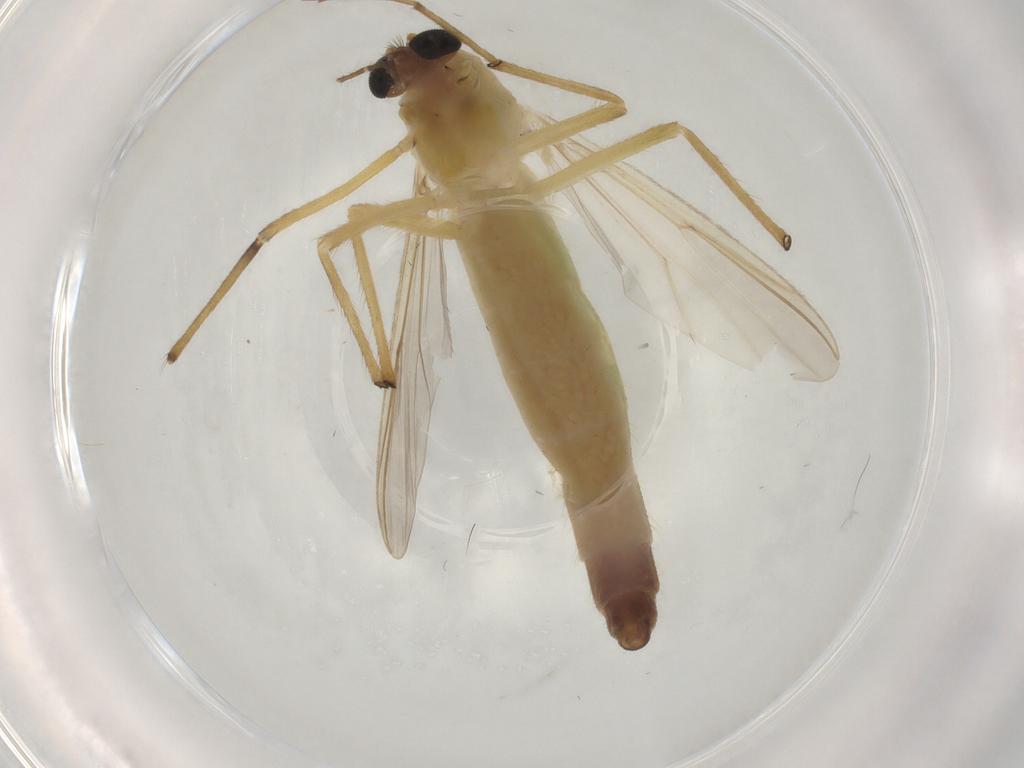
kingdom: Animalia
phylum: Arthropoda
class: Insecta
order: Diptera
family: Chironomidae
